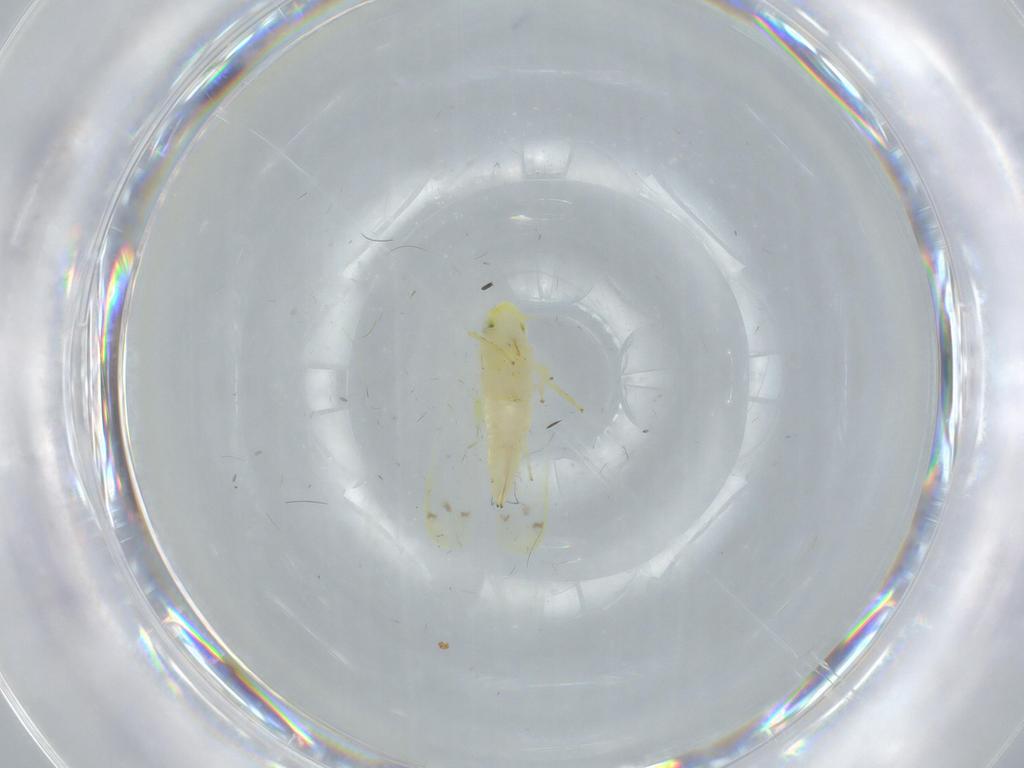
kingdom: Animalia
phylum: Arthropoda
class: Insecta
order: Hemiptera
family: Cicadellidae
